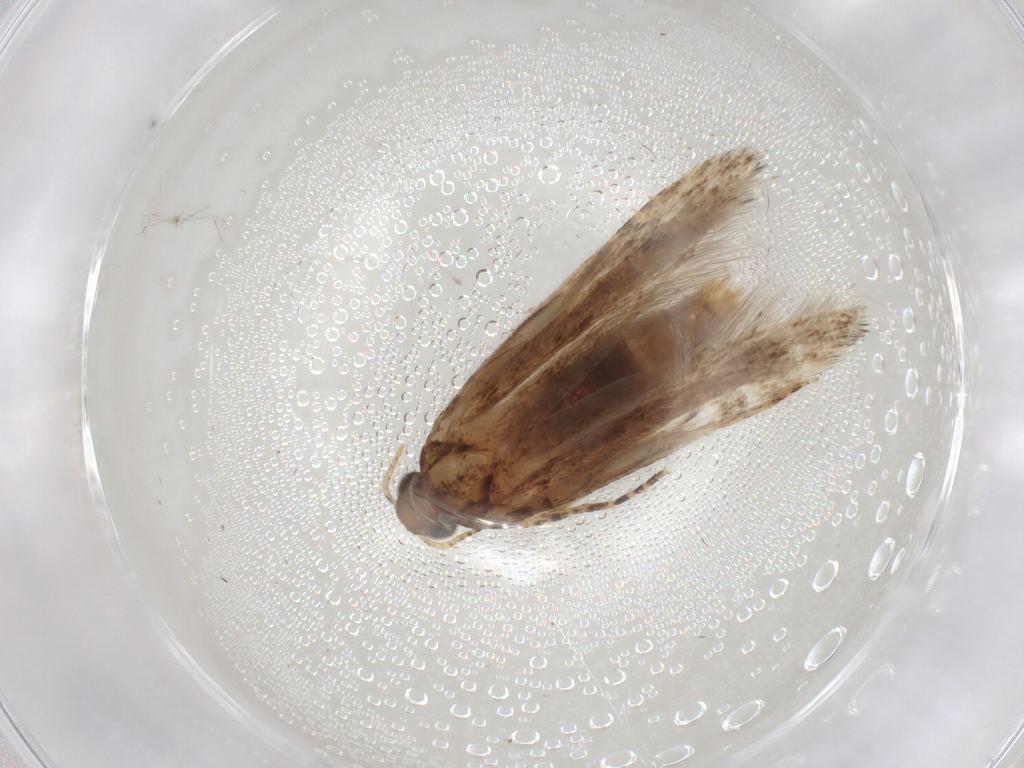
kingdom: Animalia
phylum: Arthropoda
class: Insecta
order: Lepidoptera
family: Gelechiidae
